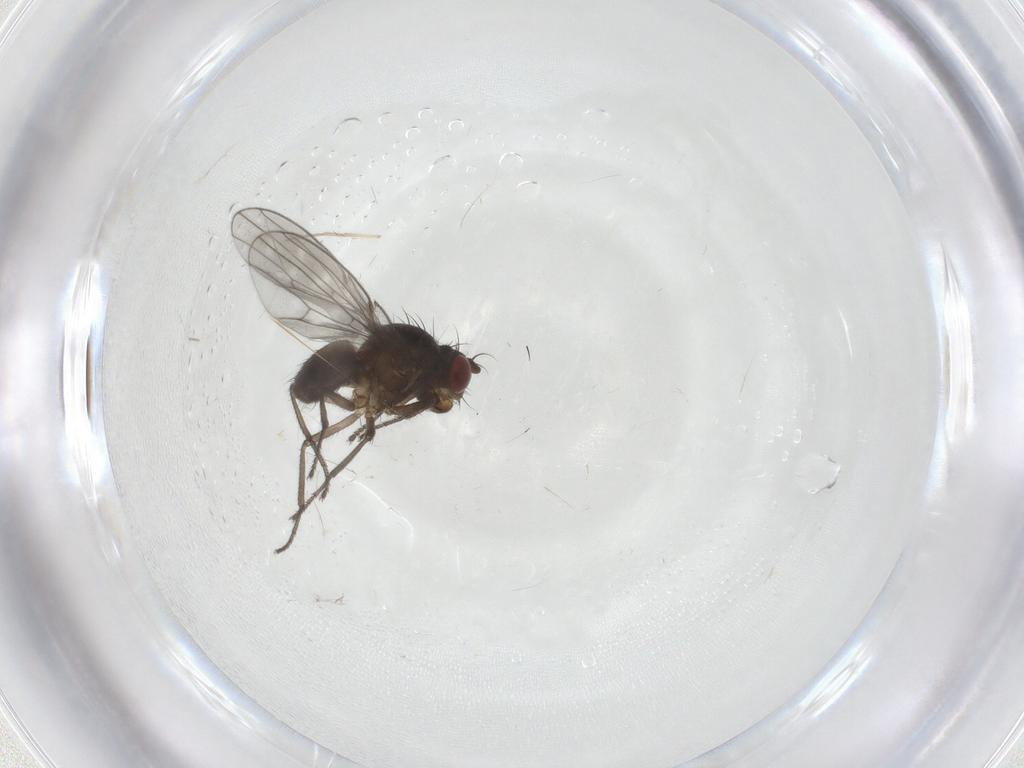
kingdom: Animalia
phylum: Arthropoda
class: Insecta
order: Diptera
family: Ephydridae
